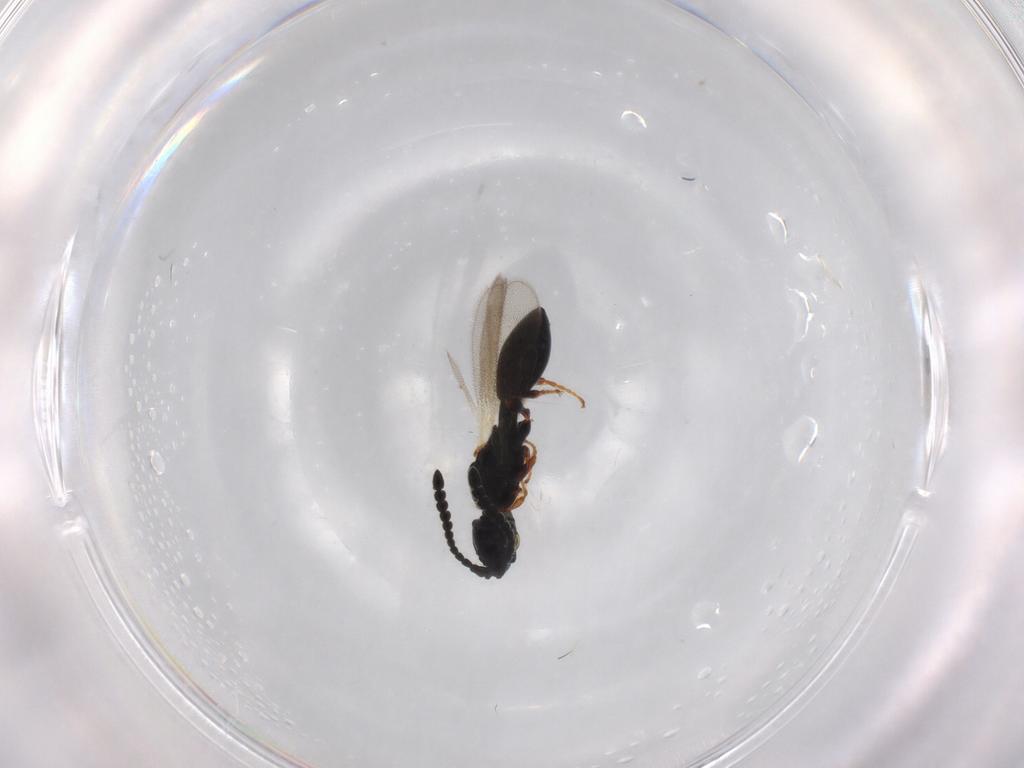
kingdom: Animalia
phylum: Arthropoda
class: Insecta
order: Hymenoptera
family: Diapriidae
